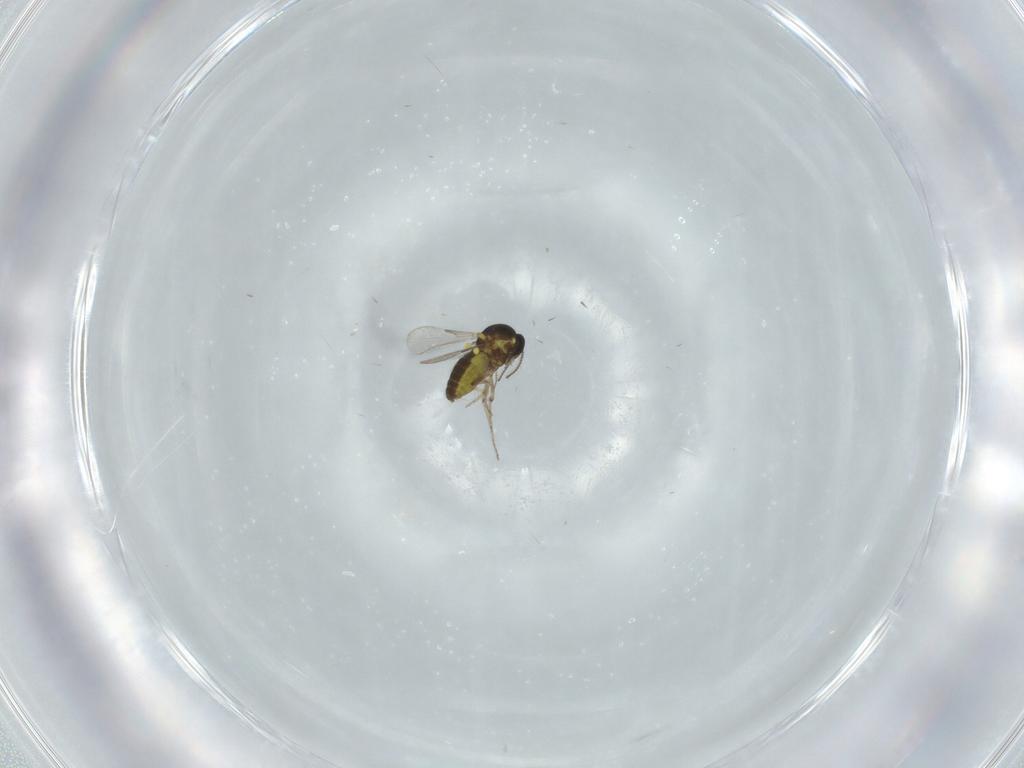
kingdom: Animalia
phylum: Arthropoda
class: Insecta
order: Diptera
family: Ceratopogonidae
